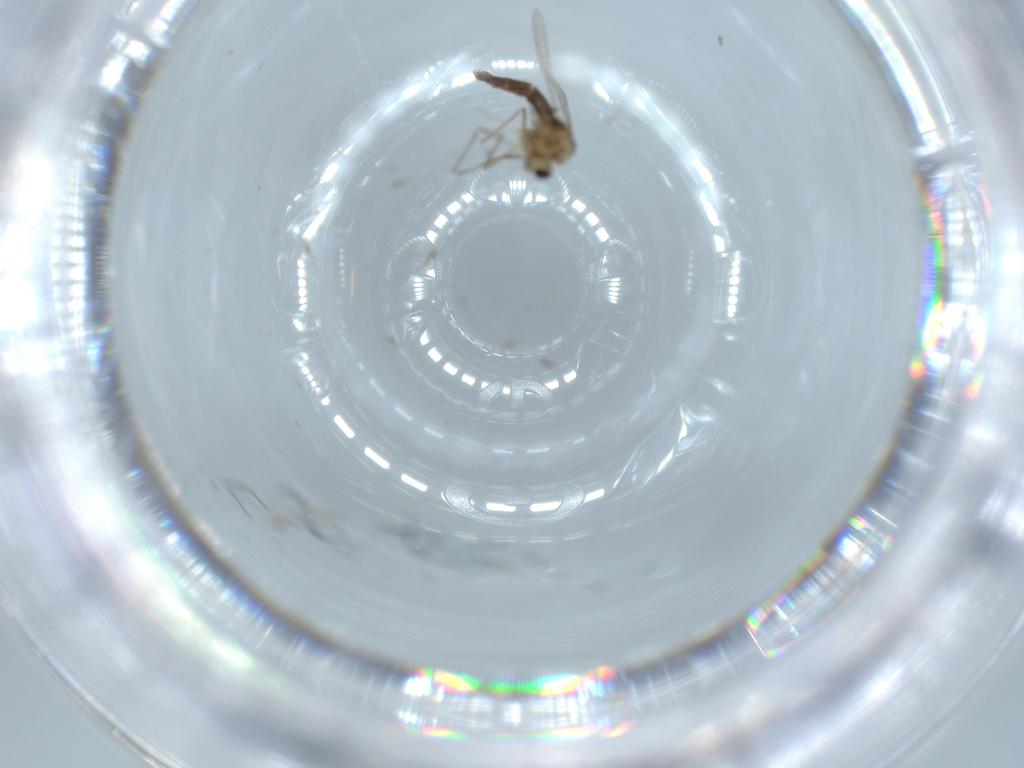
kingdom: Animalia
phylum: Arthropoda
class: Insecta
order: Diptera
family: Chironomidae
